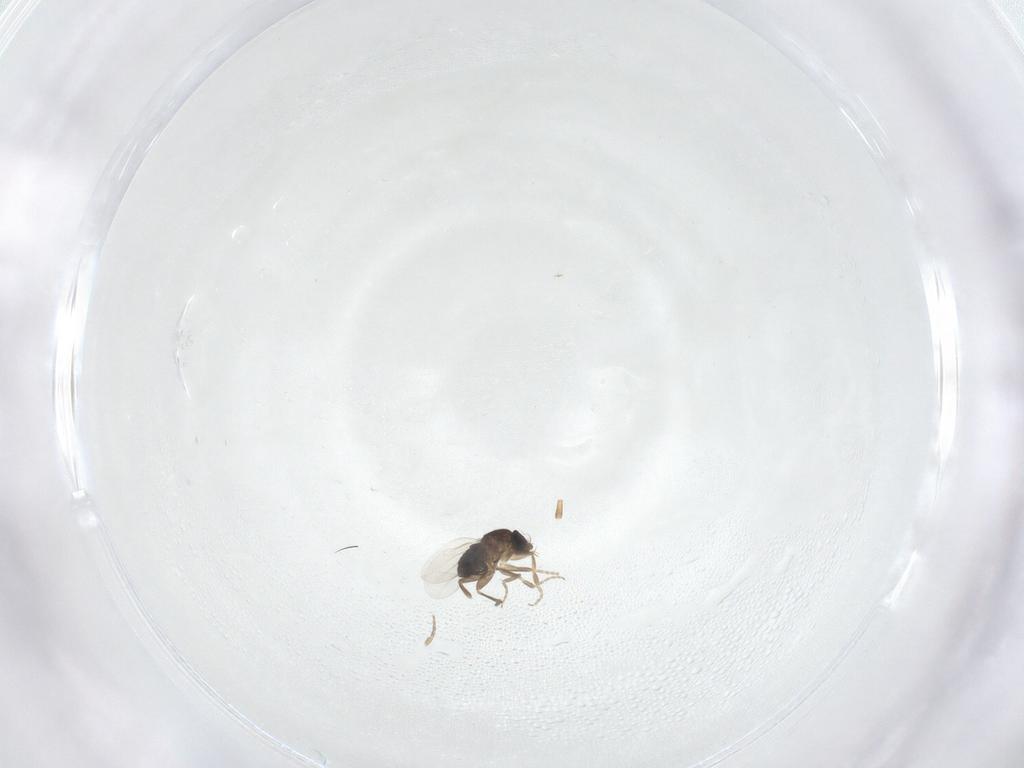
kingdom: Animalia
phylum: Arthropoda
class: Insecta
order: Diptera
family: Phoridae
